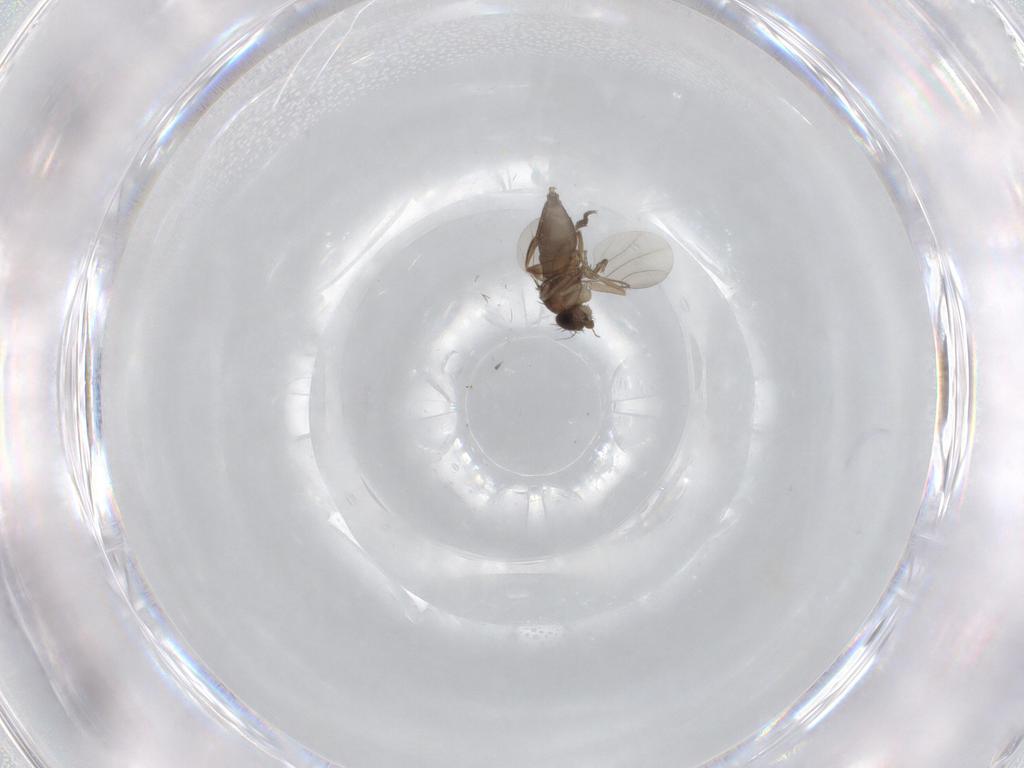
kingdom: Animalia
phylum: Arthropoda
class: Insecta
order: Diptera
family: Phoridae
